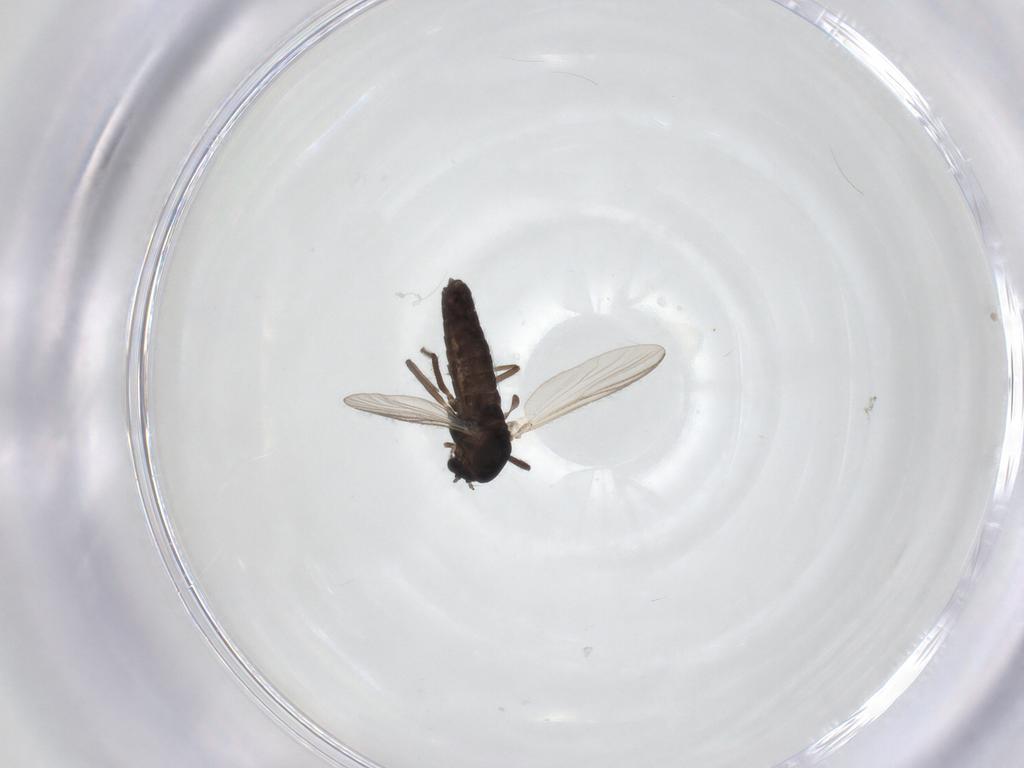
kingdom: Animalia
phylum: Arthropoda
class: Insecta
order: Diptera
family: Chironomidae
